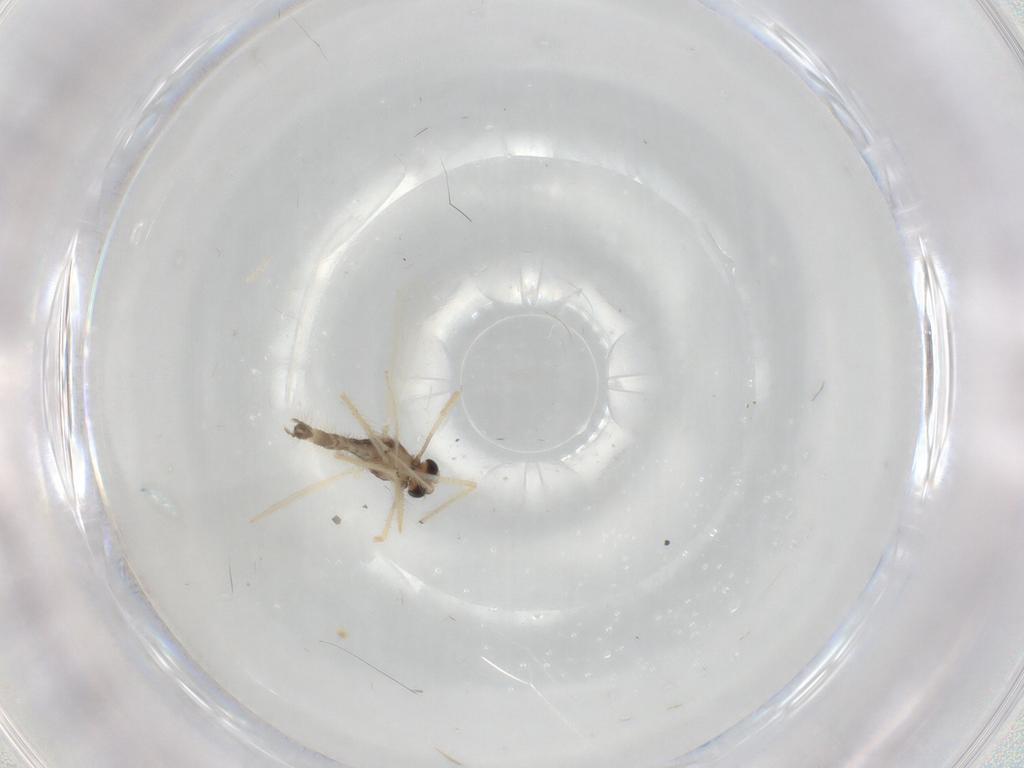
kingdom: Animalia
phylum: Arthropoda
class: Insecta
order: Diptera
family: Chironomidae
